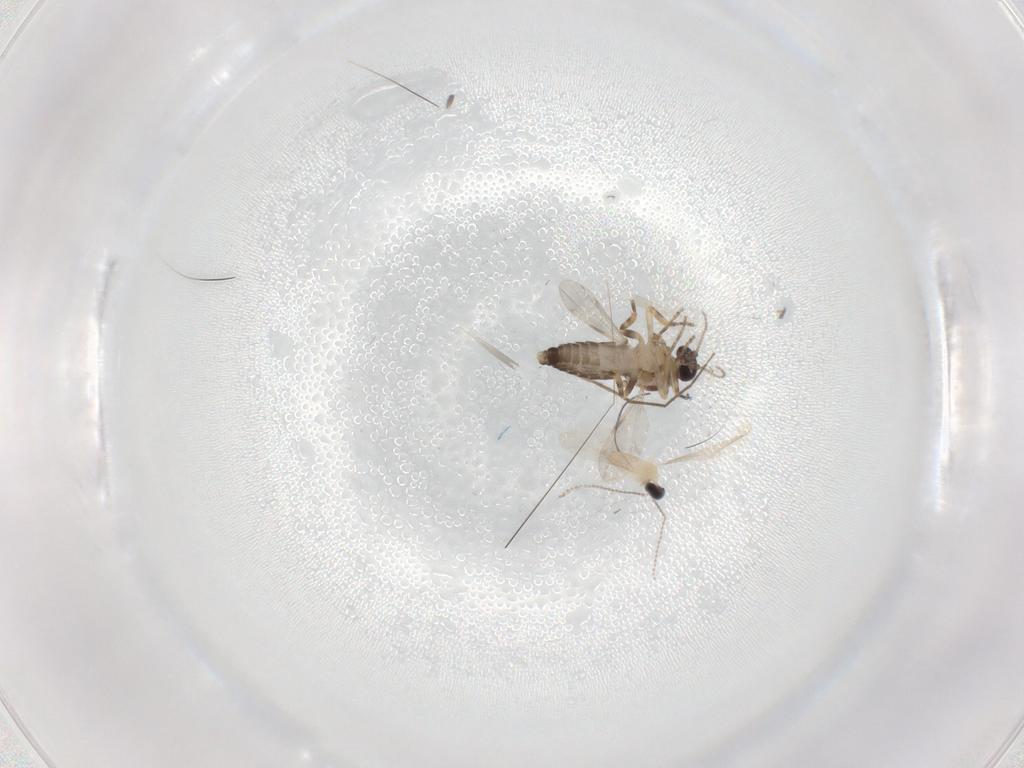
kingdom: Animalia
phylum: Arthropoda
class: Insecta
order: Diptera
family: Ceratopogonidae
